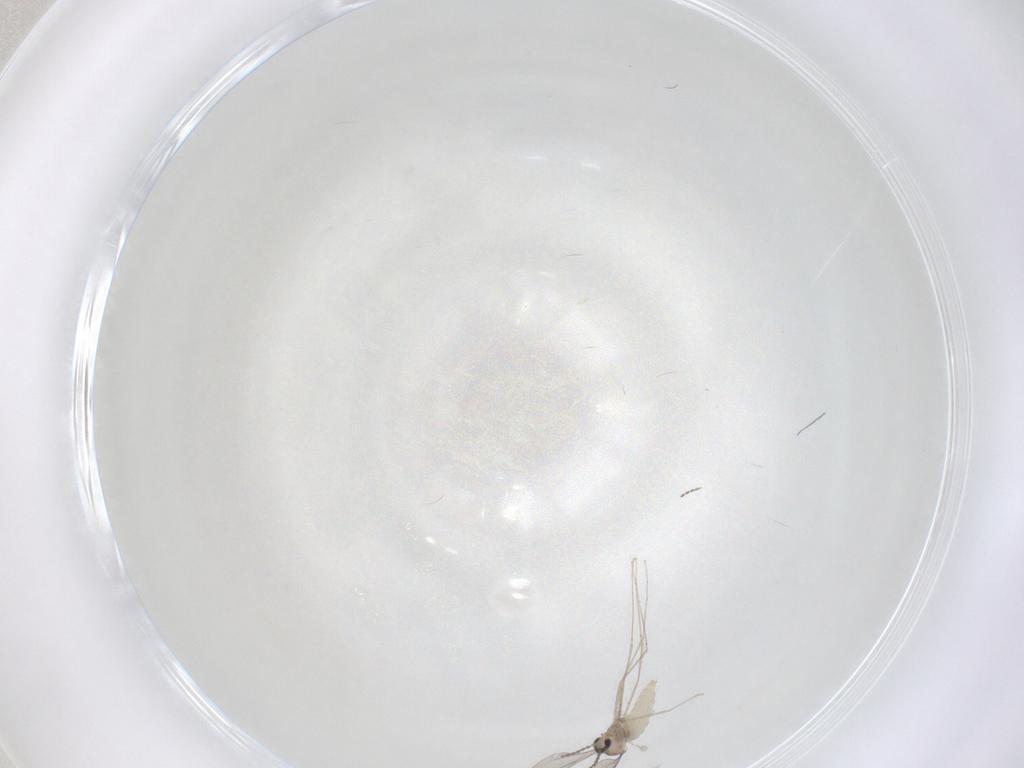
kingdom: Animalia
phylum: Arthropoda
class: Insecta
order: Diptera
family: Cecidomyiidae
